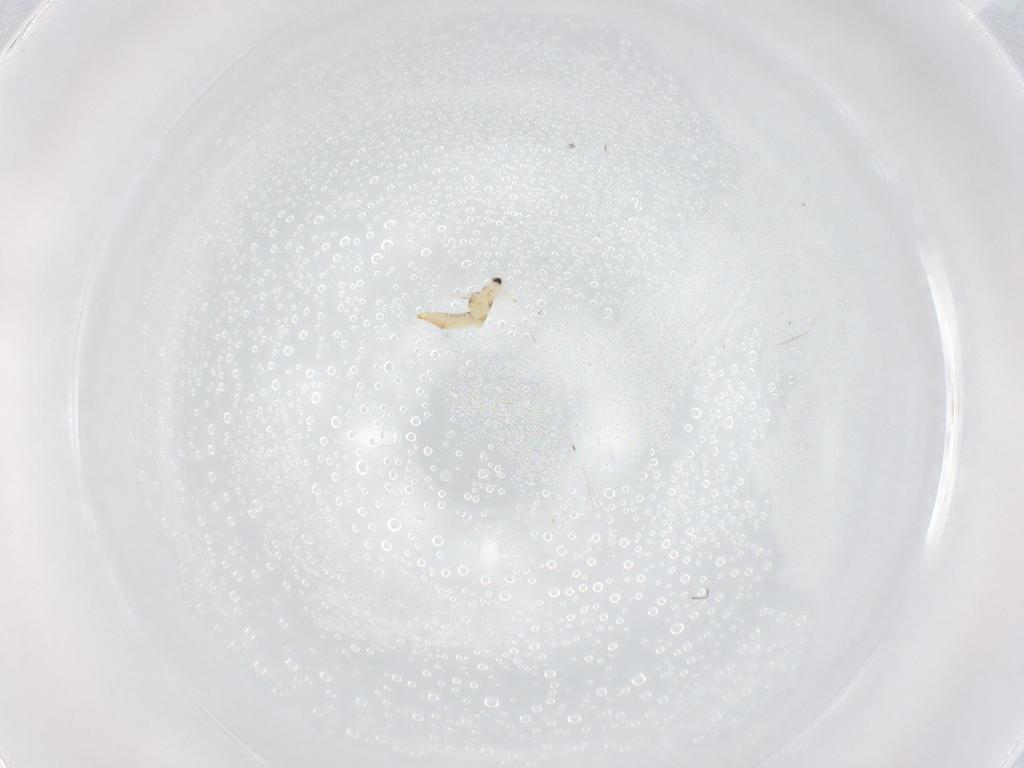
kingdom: Animalia
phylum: Arthropoda
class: Insecta
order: Thysanoptera
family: Thripidae
